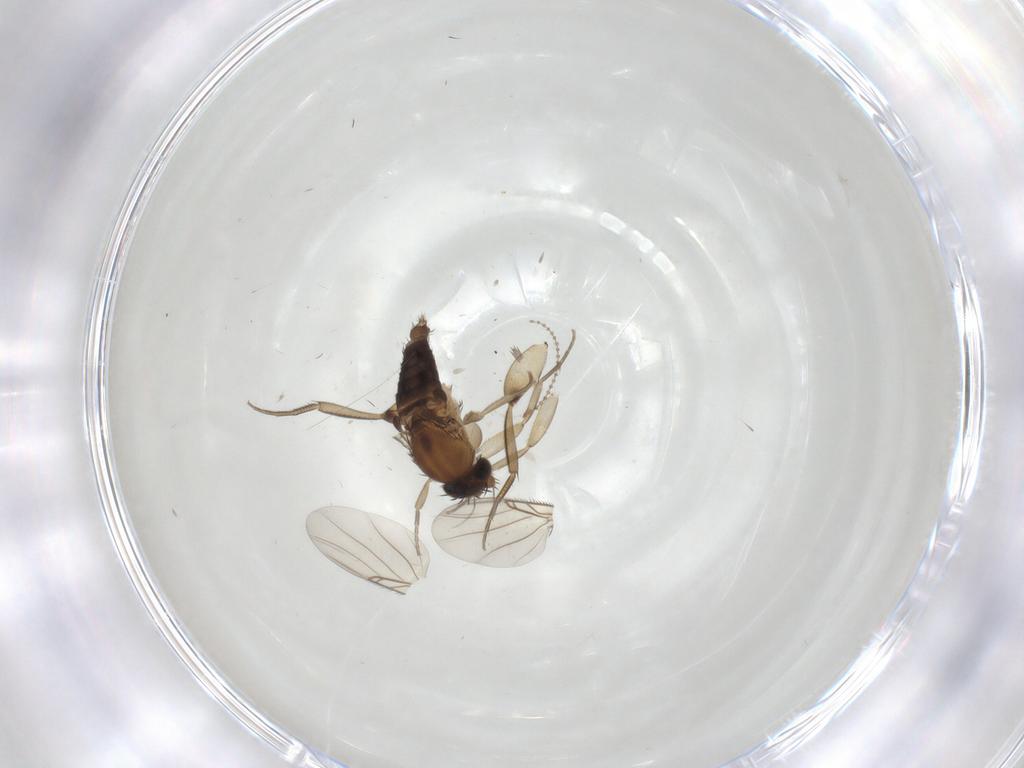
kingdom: Animalia
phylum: Arthropoda
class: Insecta
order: Diptera
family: Phoridae
